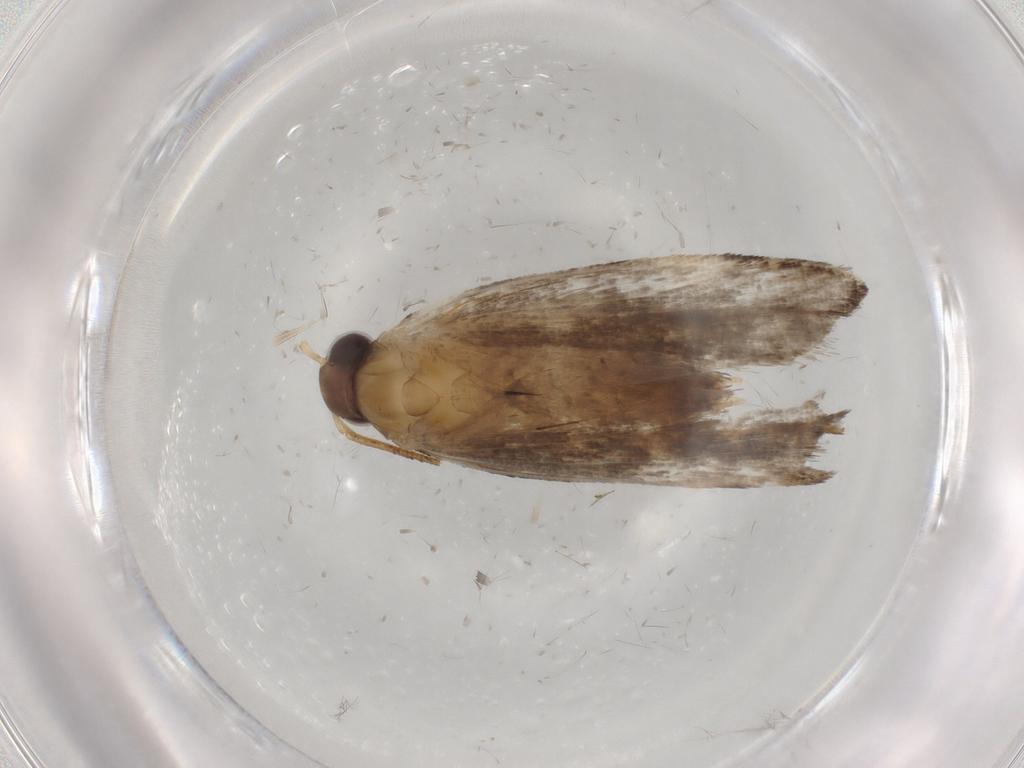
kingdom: Animalia
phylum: Arthropoda
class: Insecta
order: Lepidoptera
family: Gelechiidae
